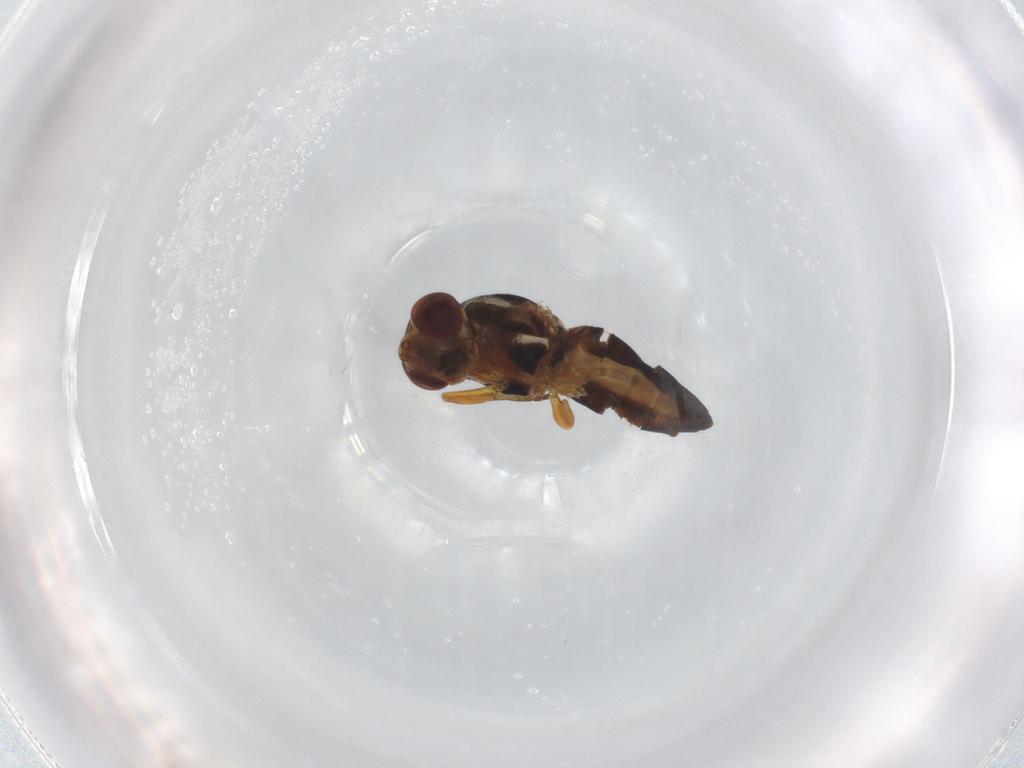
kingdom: Animalia
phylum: Arthropoda
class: Insecta
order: Diptera
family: Chloropidae
